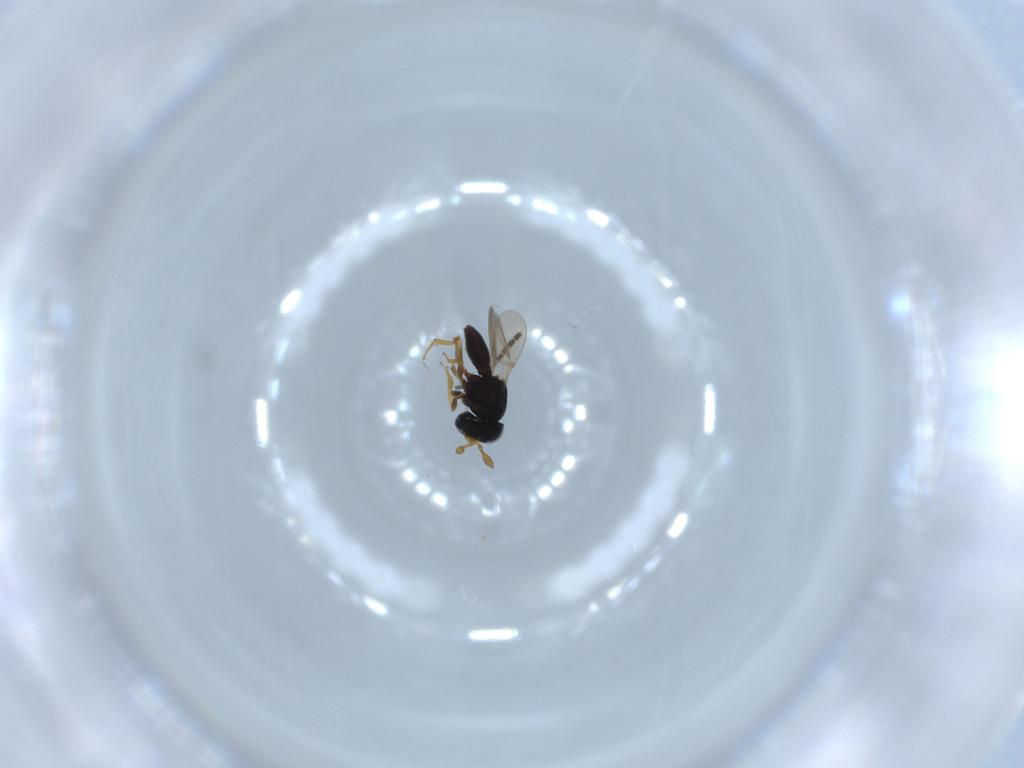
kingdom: Animalia
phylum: Arthropoda
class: Insecta
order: Hymenoptera
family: Scelionidae
